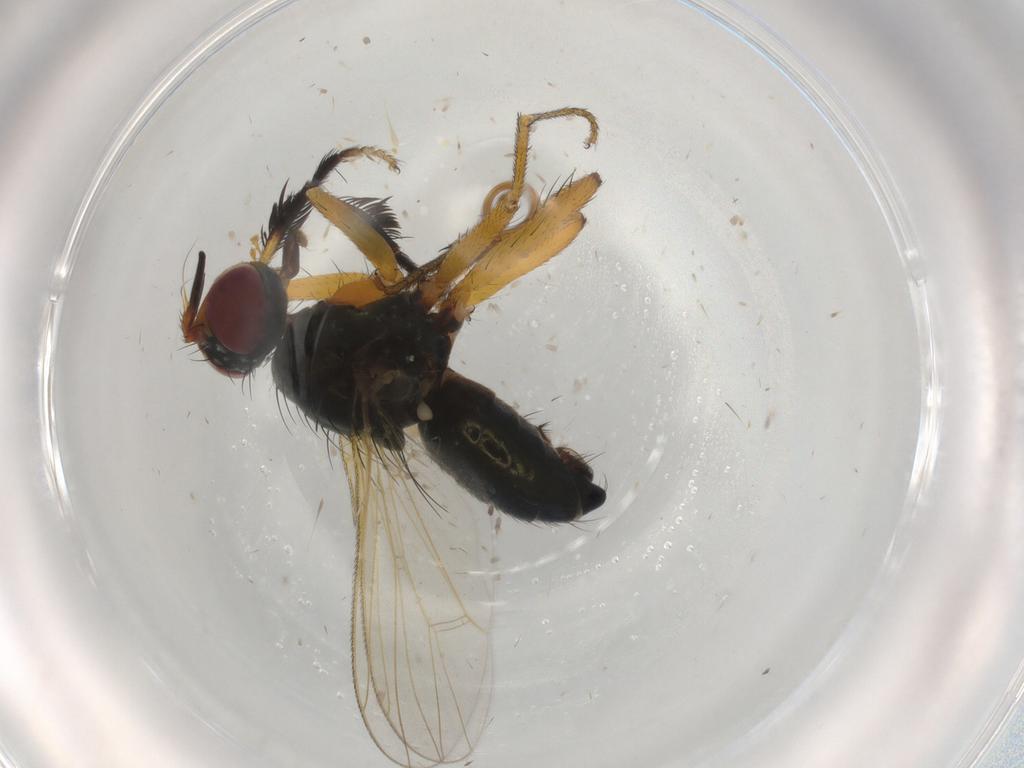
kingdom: Animalia
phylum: Arthropoda
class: Insecta
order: Diptera
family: Muscidae
